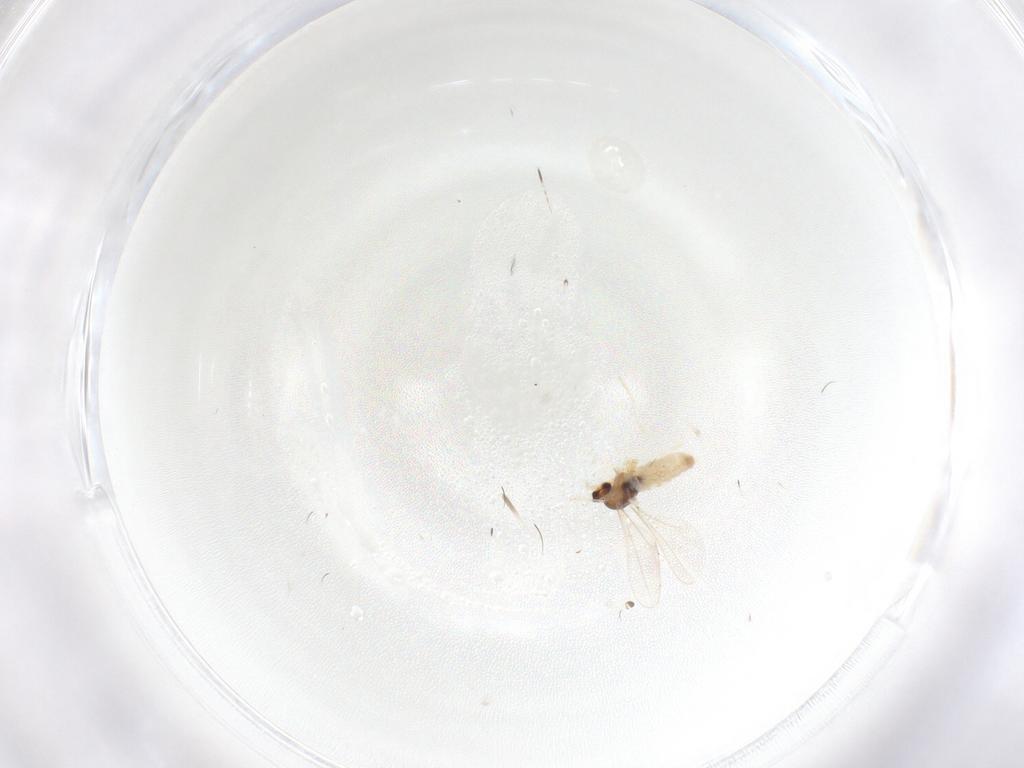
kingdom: Animalia
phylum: Arthropoda
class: Insecta
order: Diptera
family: Cecidomyiidae
